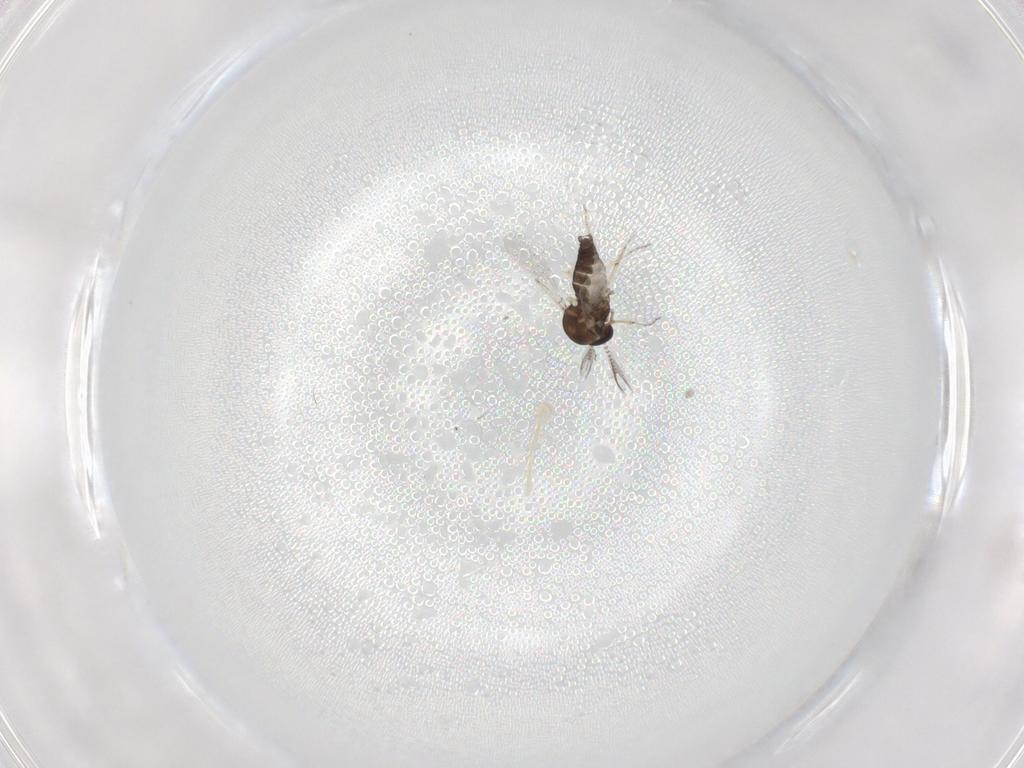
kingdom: Animalia
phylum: Arthropoda
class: Insecta
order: Diptera
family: Ceratopogonidae
